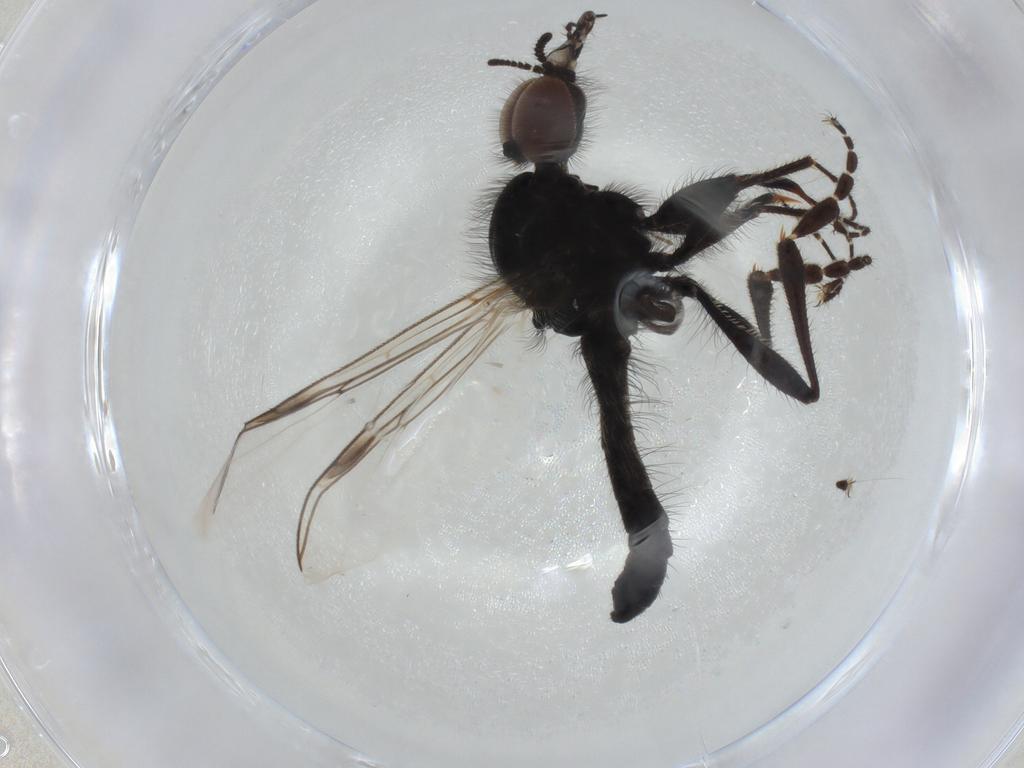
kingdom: Animalia
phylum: Arthropoda
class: Insecta
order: Diptera
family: Bibionidae
